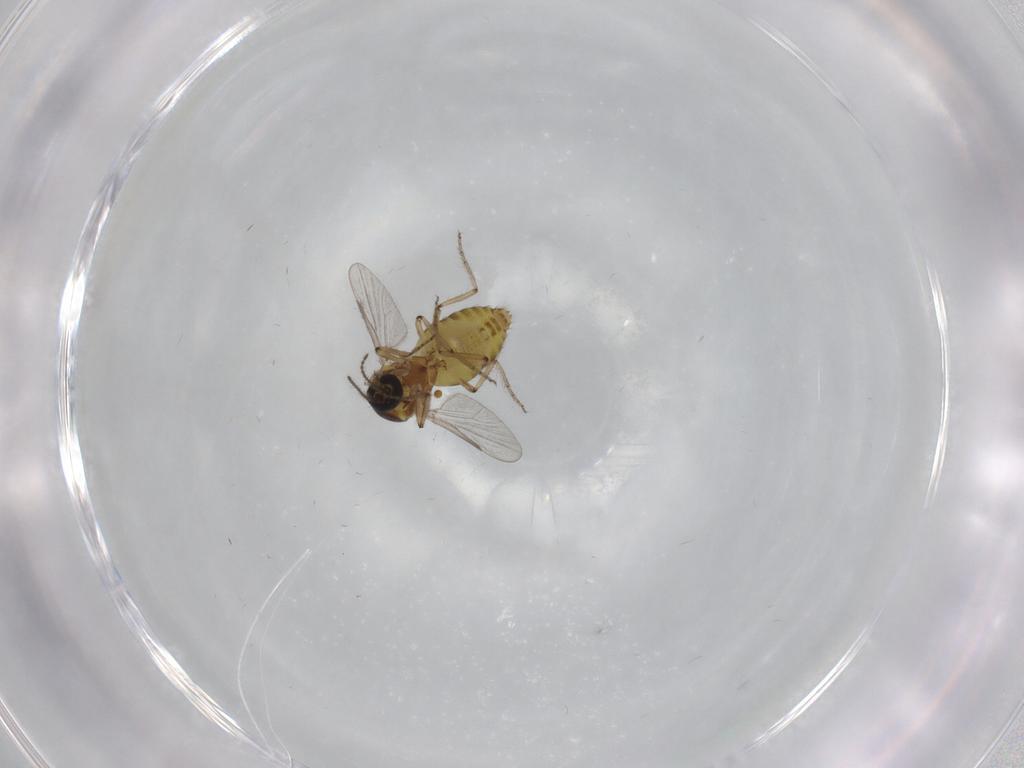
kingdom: Animalia
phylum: Arthropoda
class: Insecta
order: Diptera
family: Ceratopogonidae
